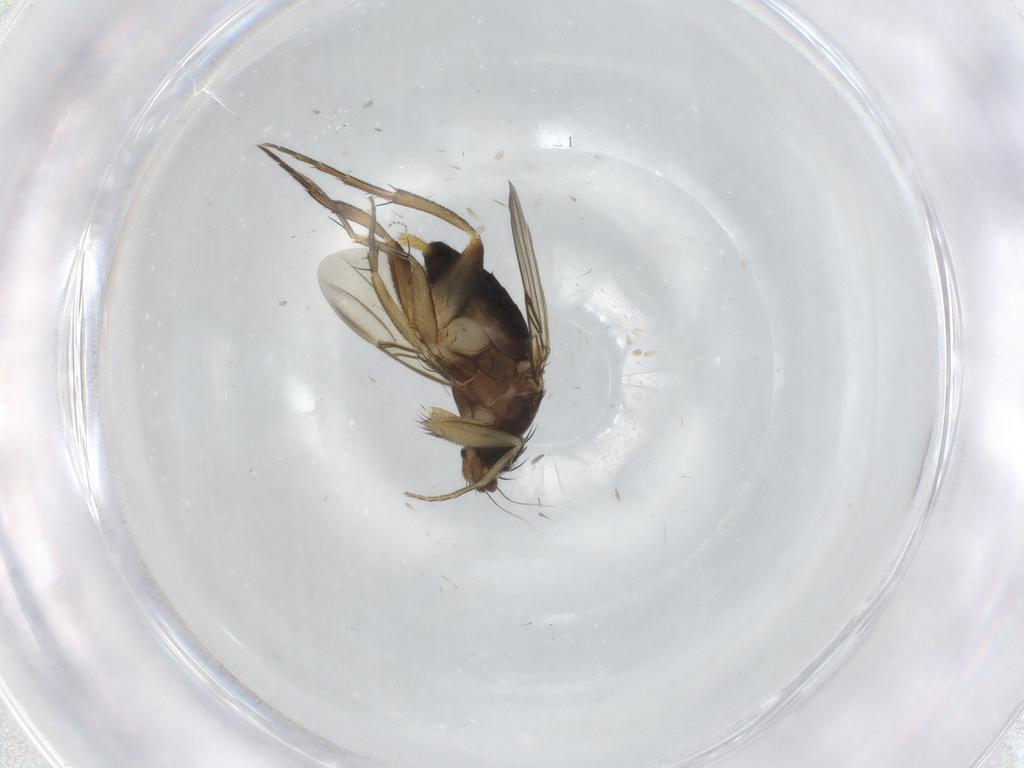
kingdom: Animalia
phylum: Arthropoda
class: Insecta
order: Diptera
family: Phoridae
